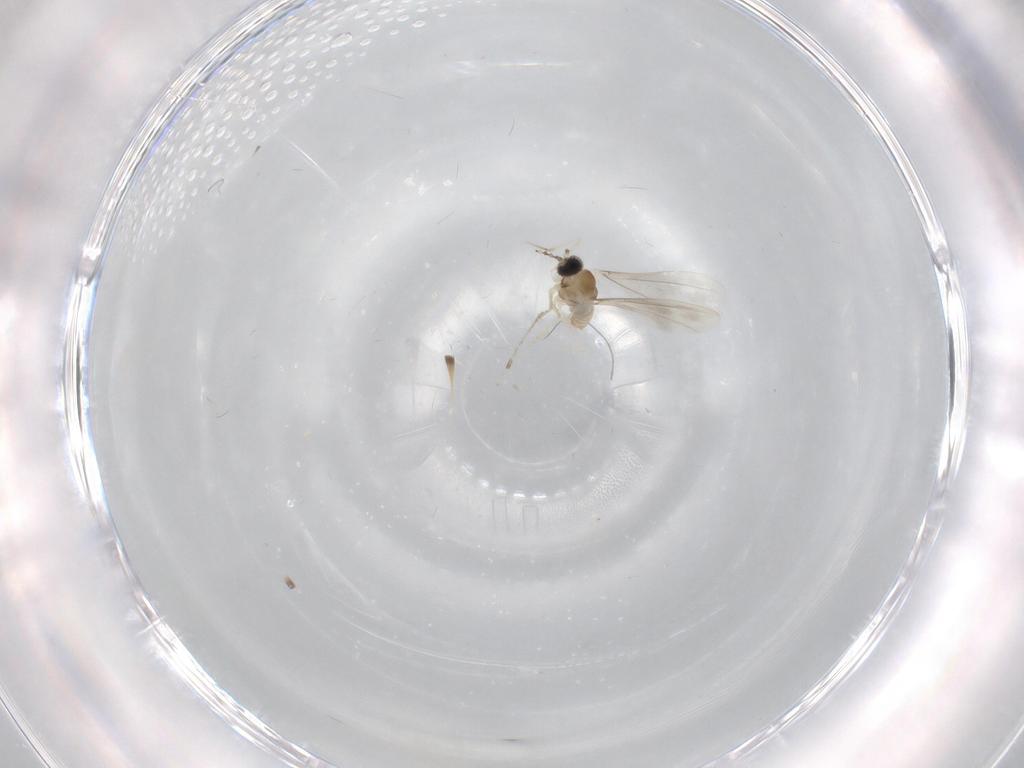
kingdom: Animalia
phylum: Arthropoda
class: Insecta
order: Diptera
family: Cecidomyiidae
